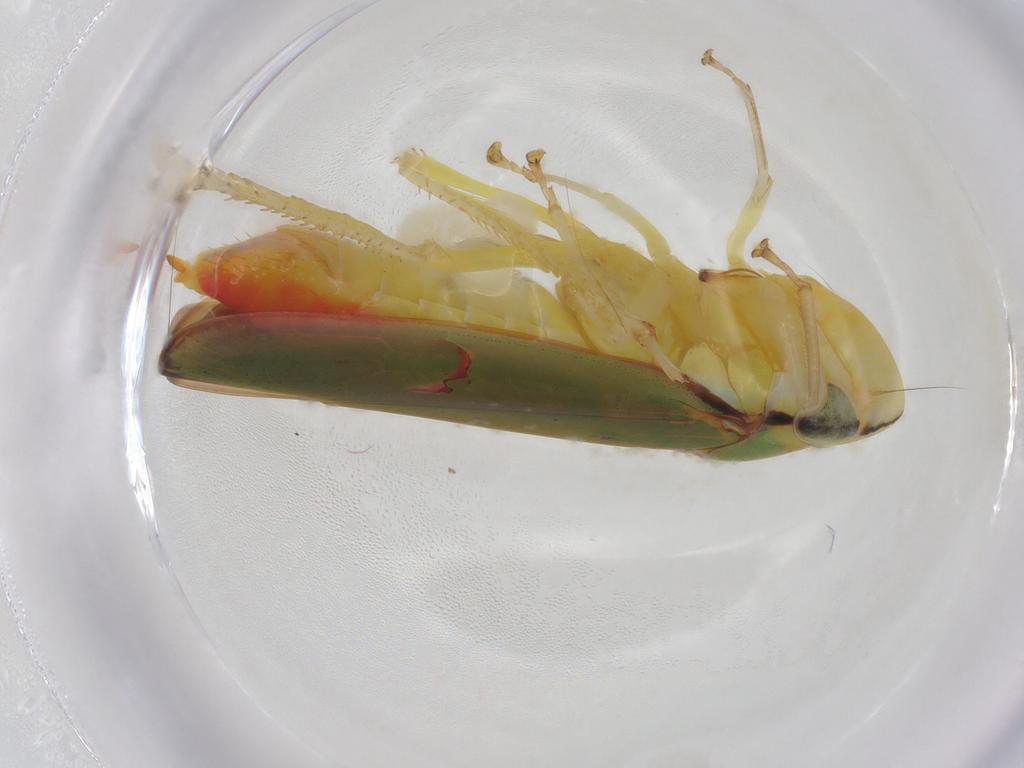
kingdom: Animalia
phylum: Arthropoda
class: Insecta
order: Hemiptera
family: Cicadellidae
